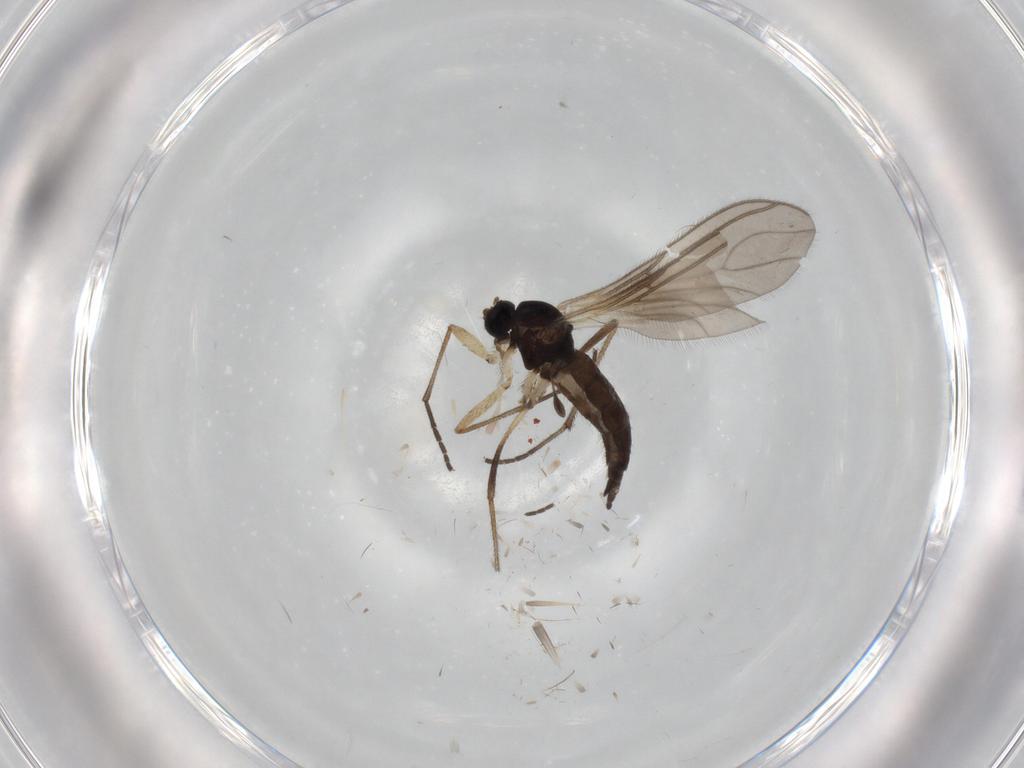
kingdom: Animalia
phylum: Arthropoda
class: Insecta
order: Diptera
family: Sciaridae
